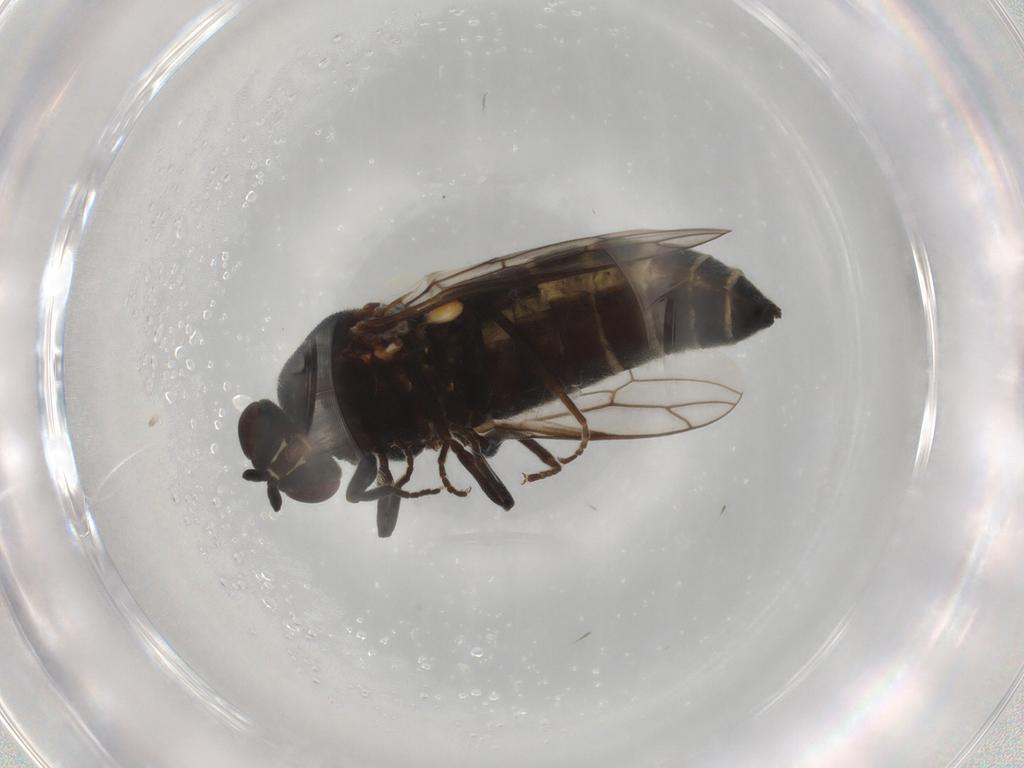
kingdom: Animalia
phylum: Arthropoda
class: Insecta
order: Diptera
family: Scenopinidae
